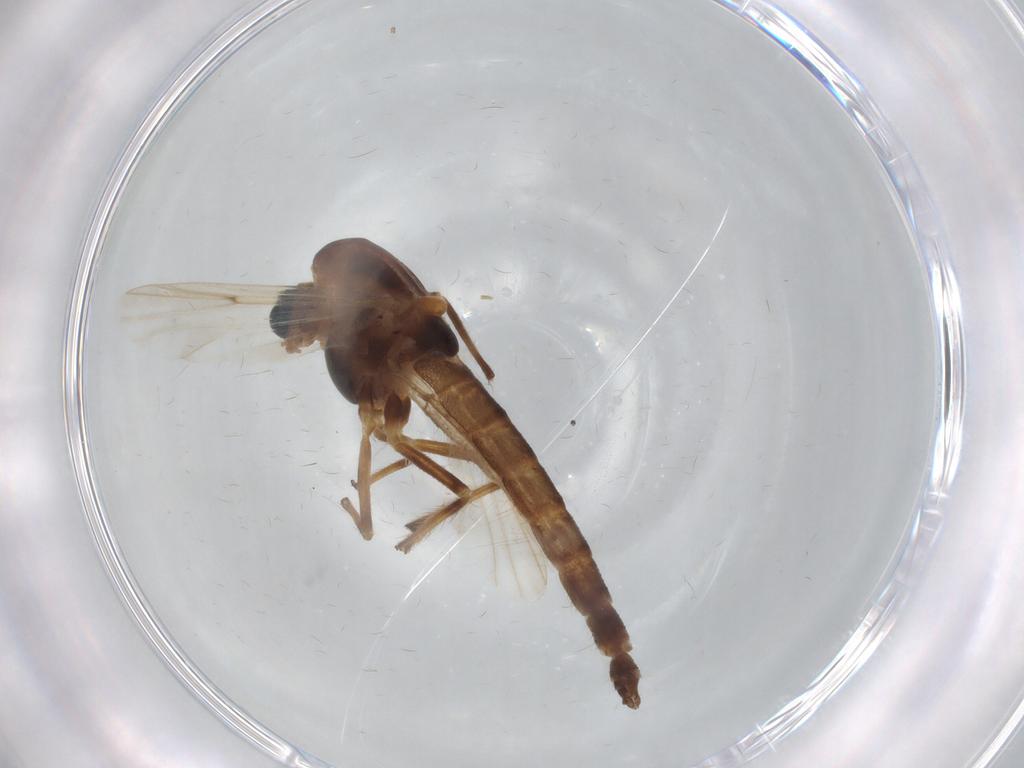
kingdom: Animalia
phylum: Arthropoda
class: Insecta
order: Diptera
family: Chironomidae
